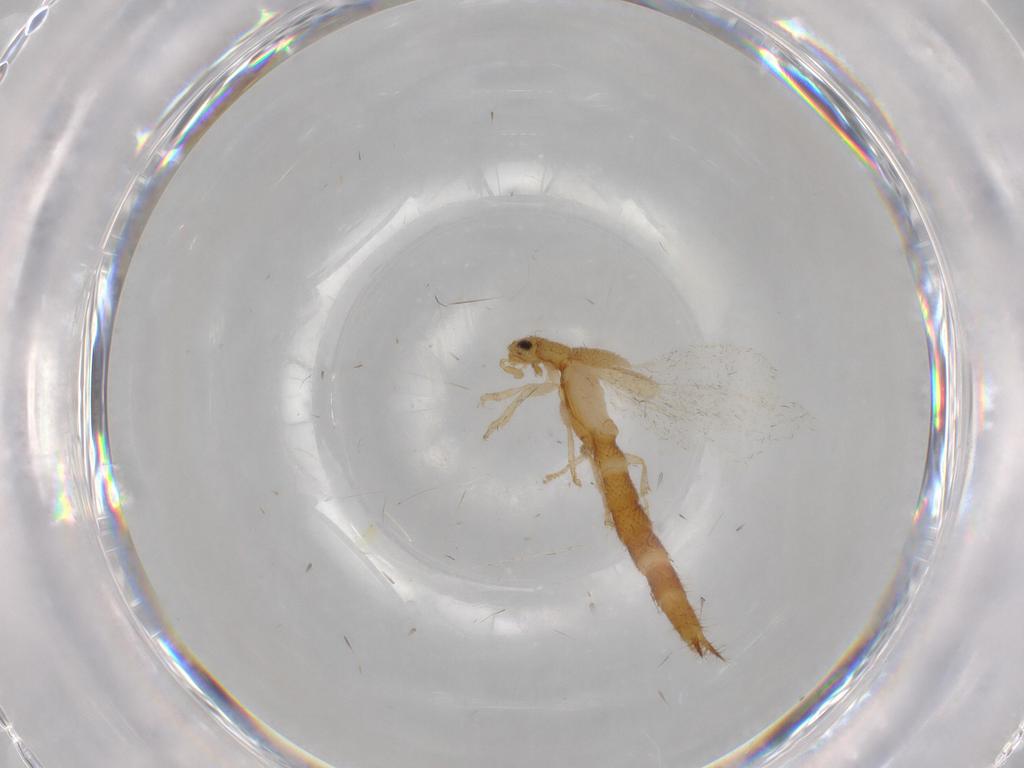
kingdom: Animalia
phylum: Arthropoda
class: Insecta
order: Coleoptera
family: Staphylinidae
